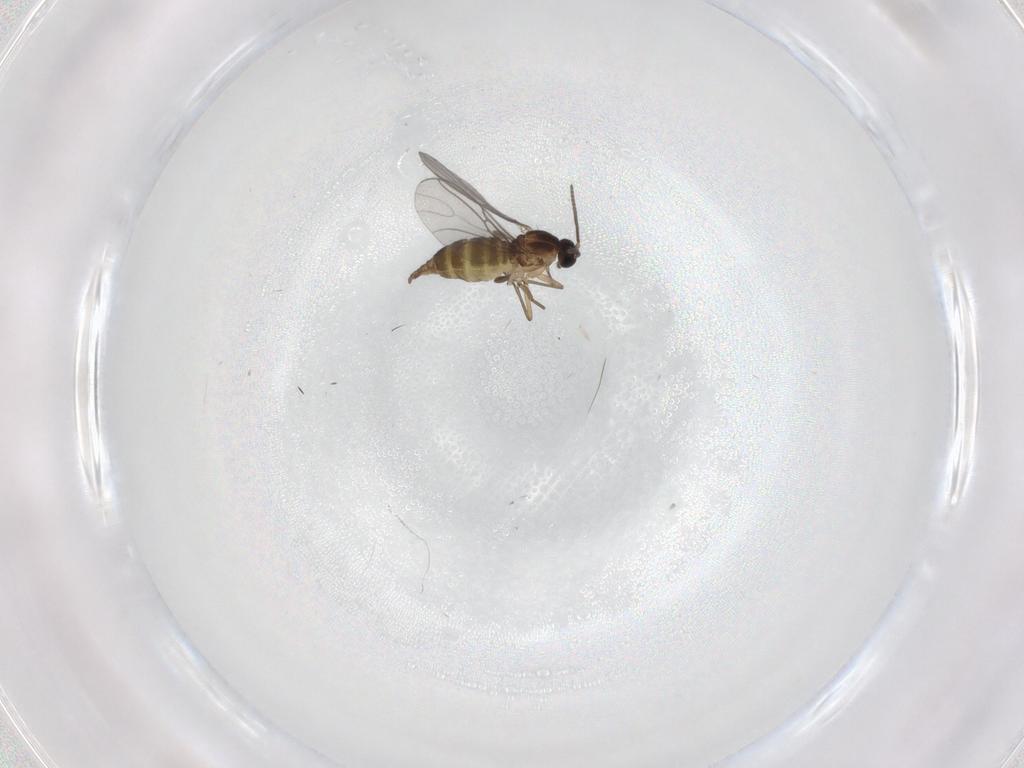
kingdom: Animalia
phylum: Arthropoda
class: Insecta
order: Diptera
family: Sciaridae
